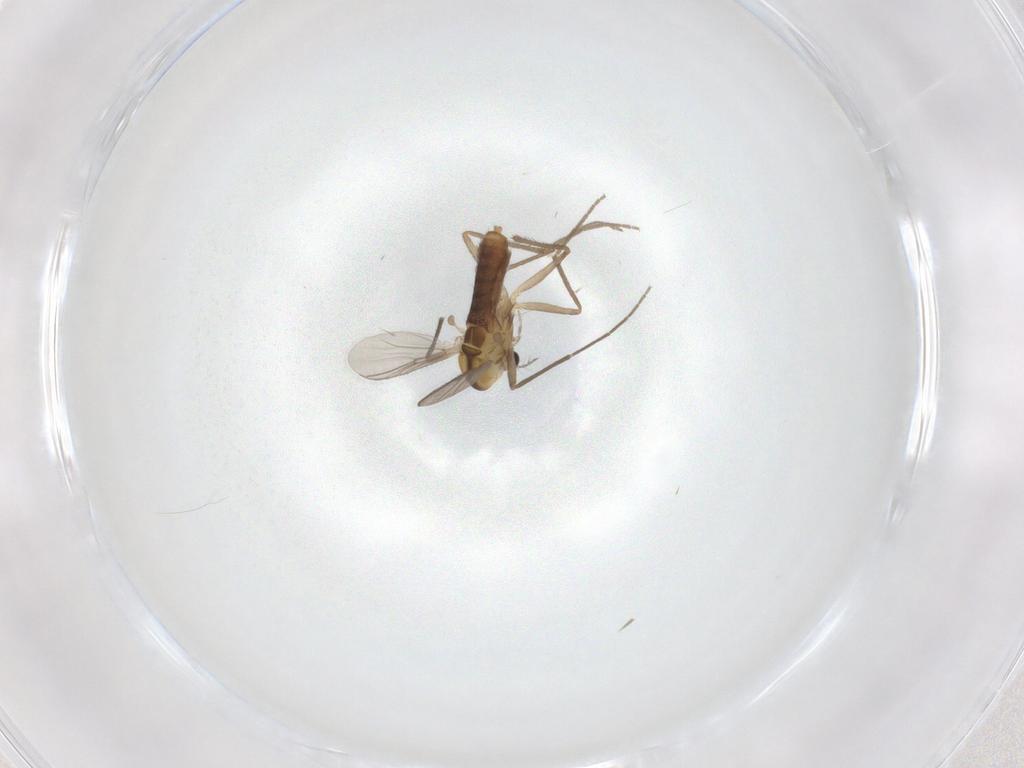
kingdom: Animalia
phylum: Arthropoda
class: Insecta
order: Diptera
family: Chironomidae
